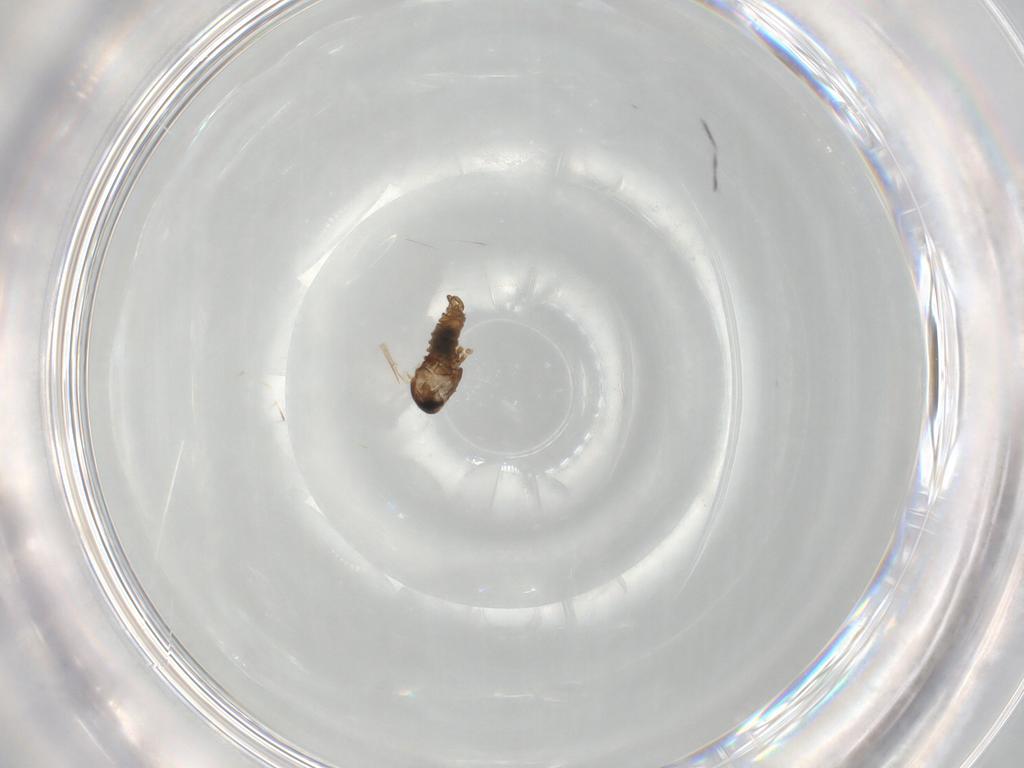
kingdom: Animalia
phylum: Arthropoda
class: Insecta
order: Diptera
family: Cecidomyiidae
